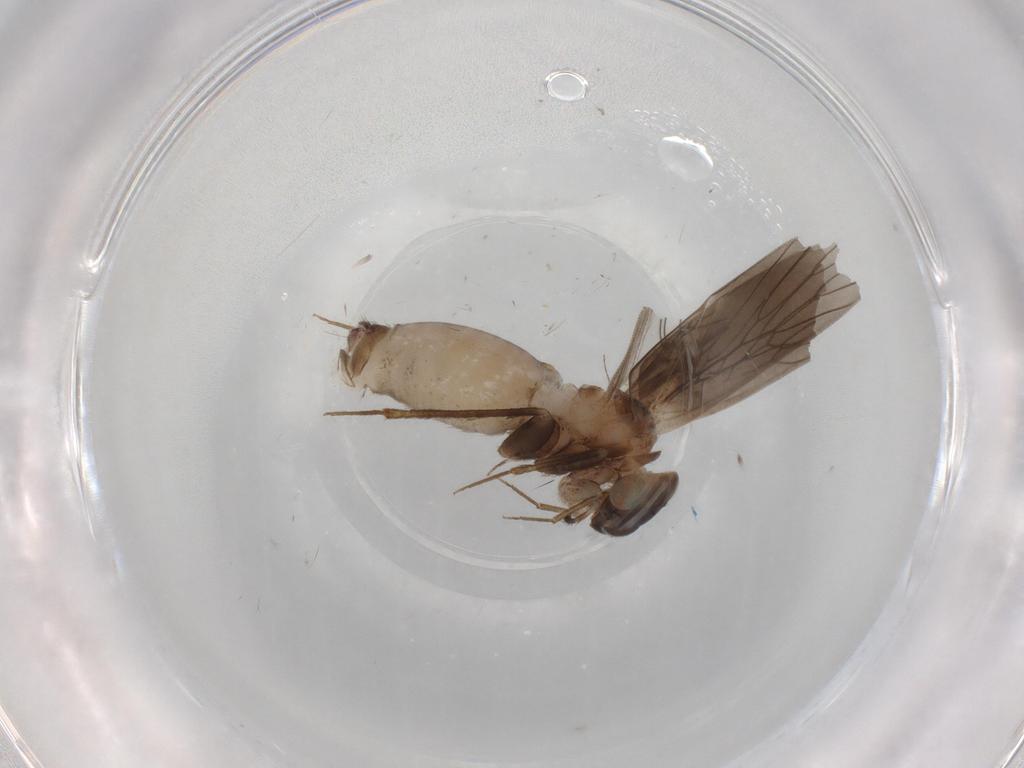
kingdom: Animalia
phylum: Arthropoda
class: Insecta
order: Psocodea
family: Lepidopsocidae
